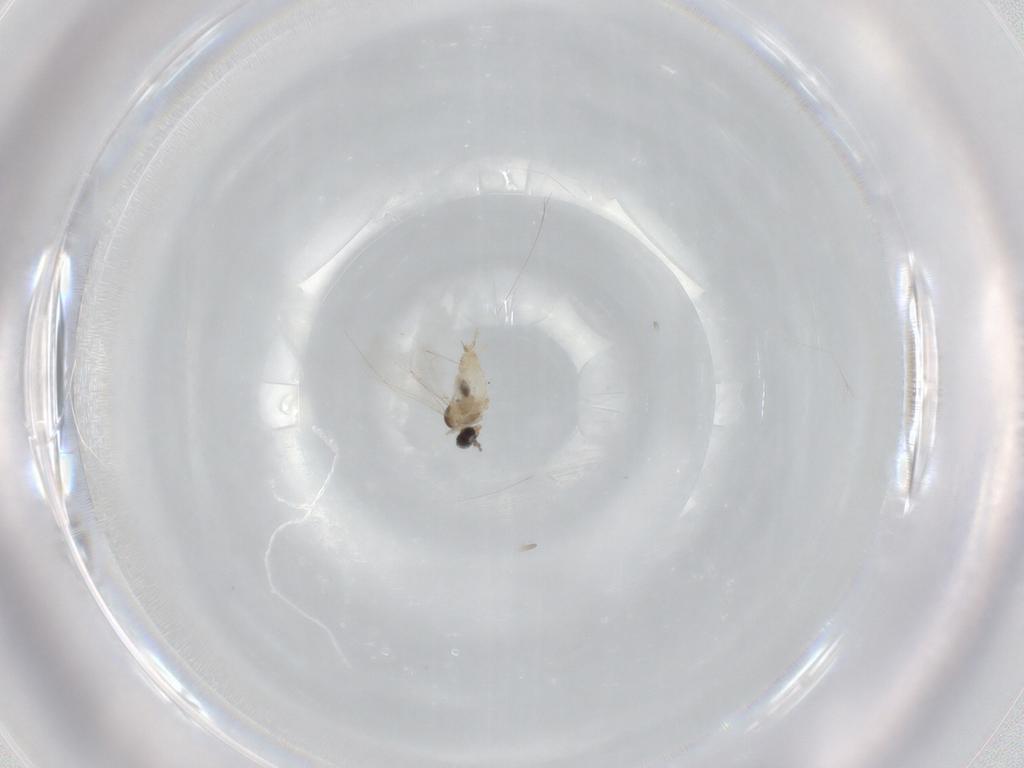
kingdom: Animalia
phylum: Arthropoda
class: Insecta
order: Diptera
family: Cecidomyiidae
